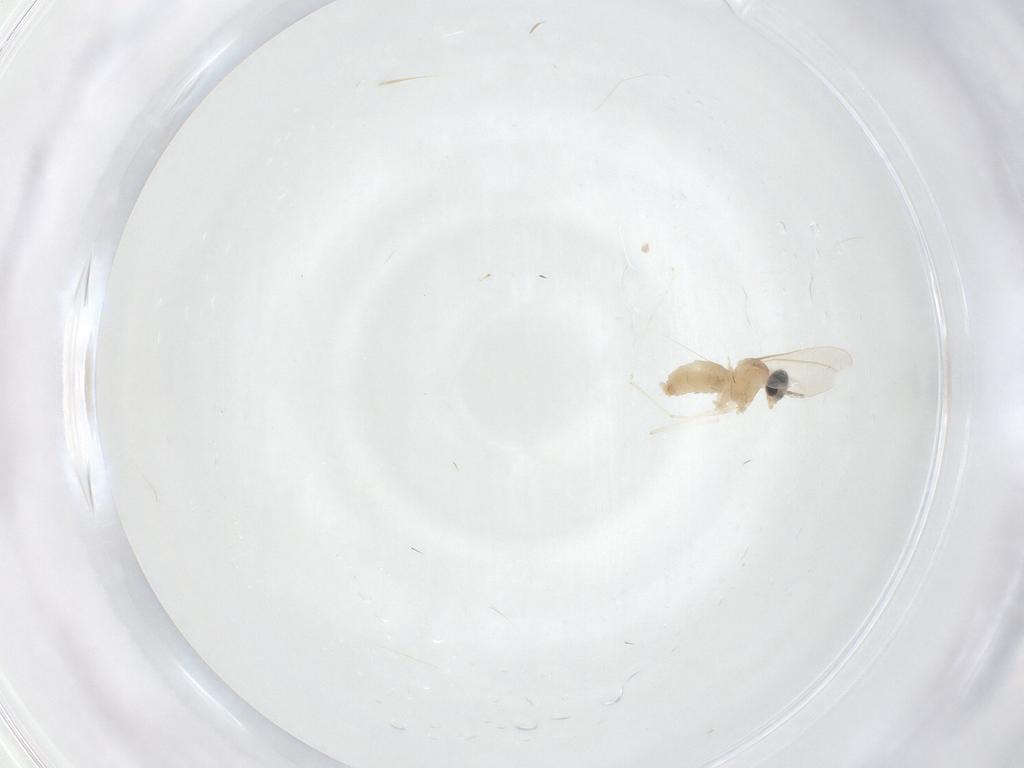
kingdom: Animalia
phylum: Arthropoda
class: Insecta
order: Diptera
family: Cecidomyiidae
